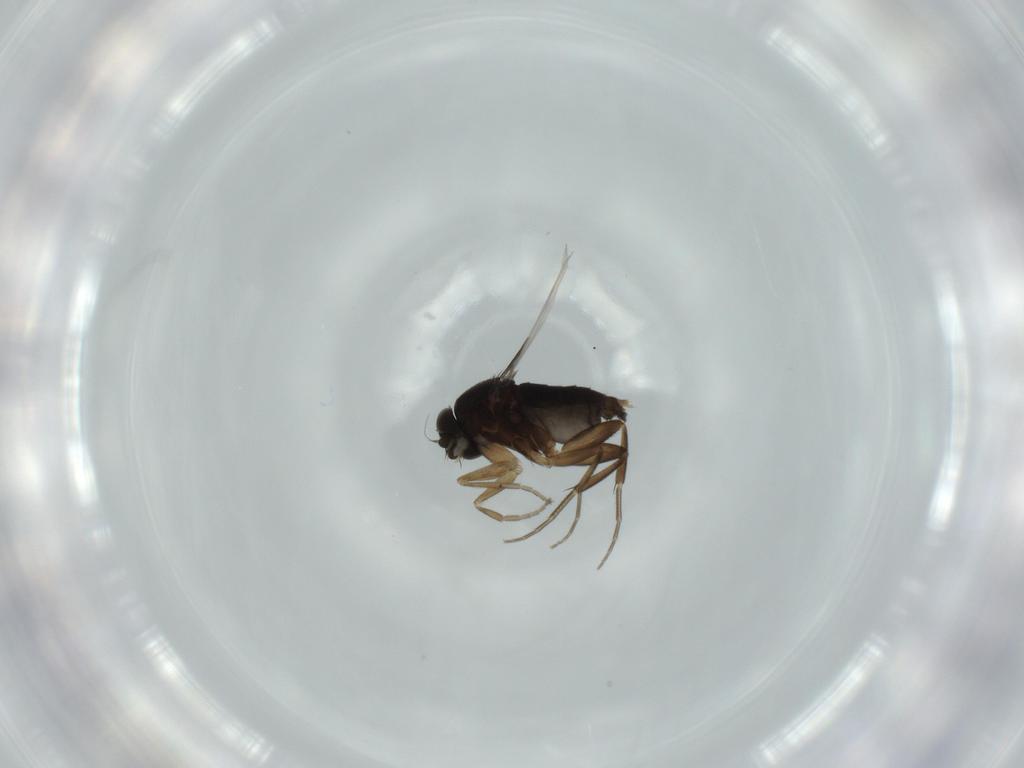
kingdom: Animalia
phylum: Arthropoda
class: Insecta
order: Diptera
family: Phoridae
